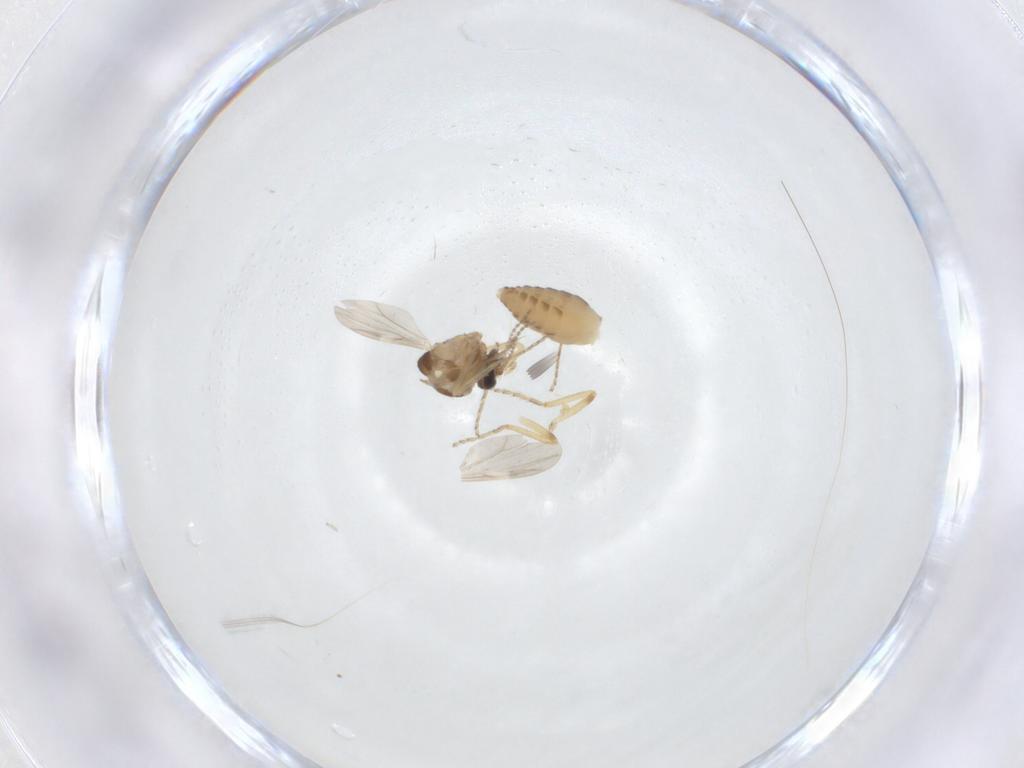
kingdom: Animalia
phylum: Arthropoda
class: Insecta
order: Diptera
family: Ceratopogonidae
